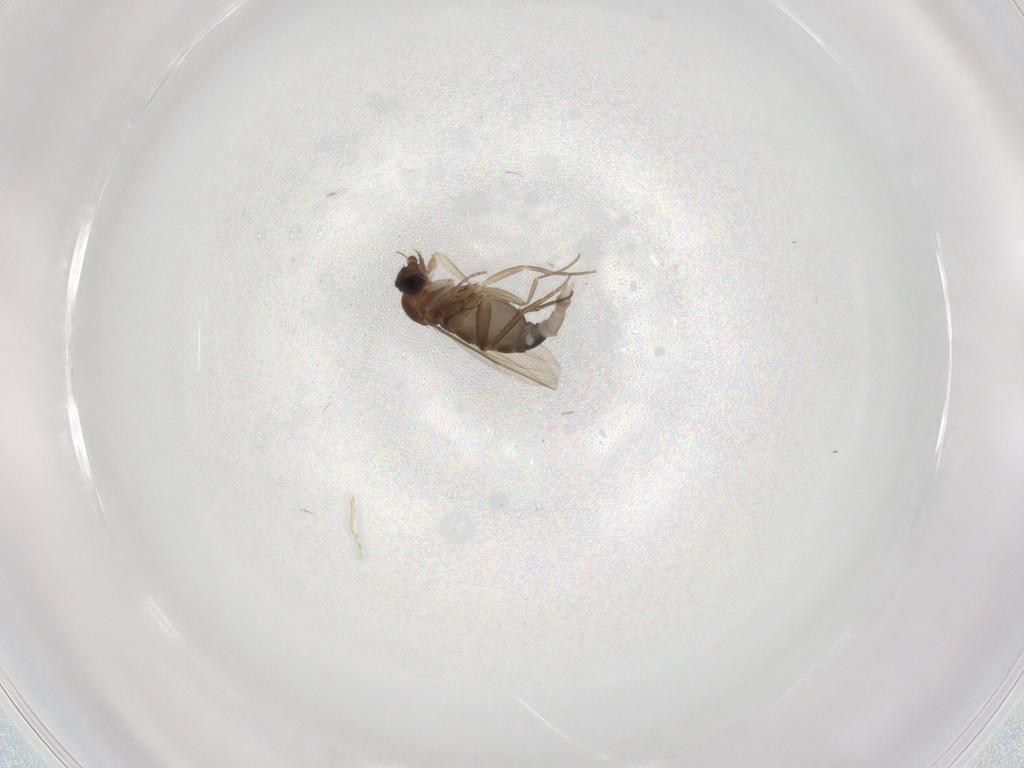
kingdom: Animalia
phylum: Arthropoda
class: Insecta
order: Diptera
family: Phoridae
